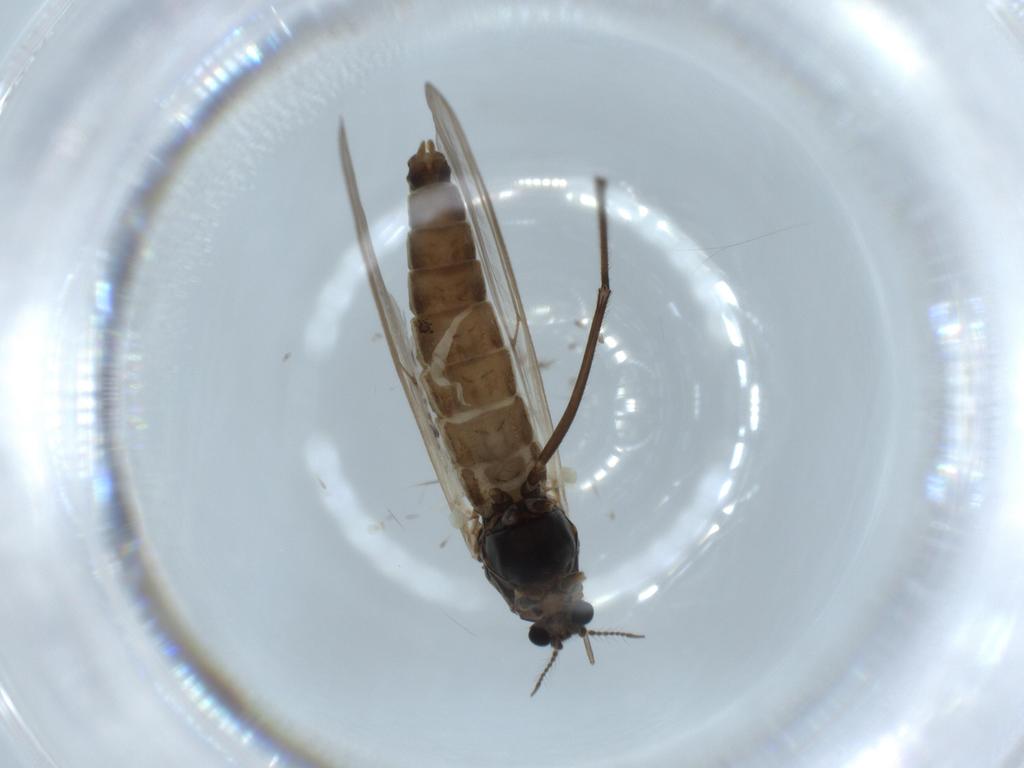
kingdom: Animalia
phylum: Arthropoda
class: Insecta
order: Diptera
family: Chironomidae
